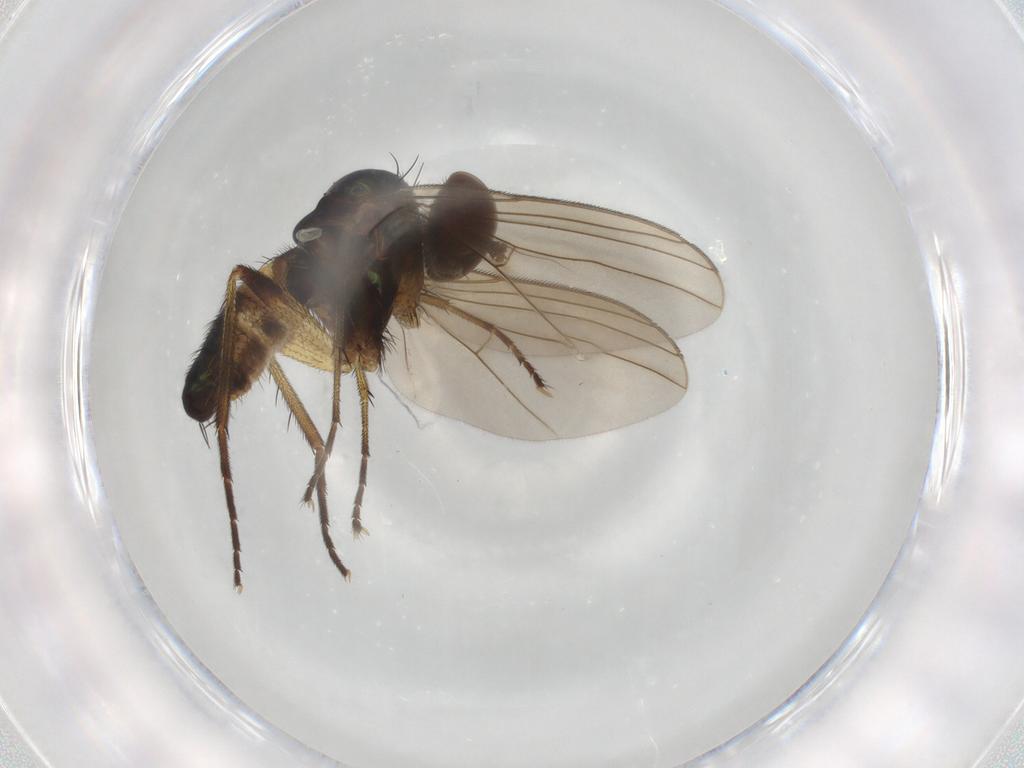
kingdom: Animalia
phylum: Arthropoda
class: Insecta
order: Diptera
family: Dolichopodidae
